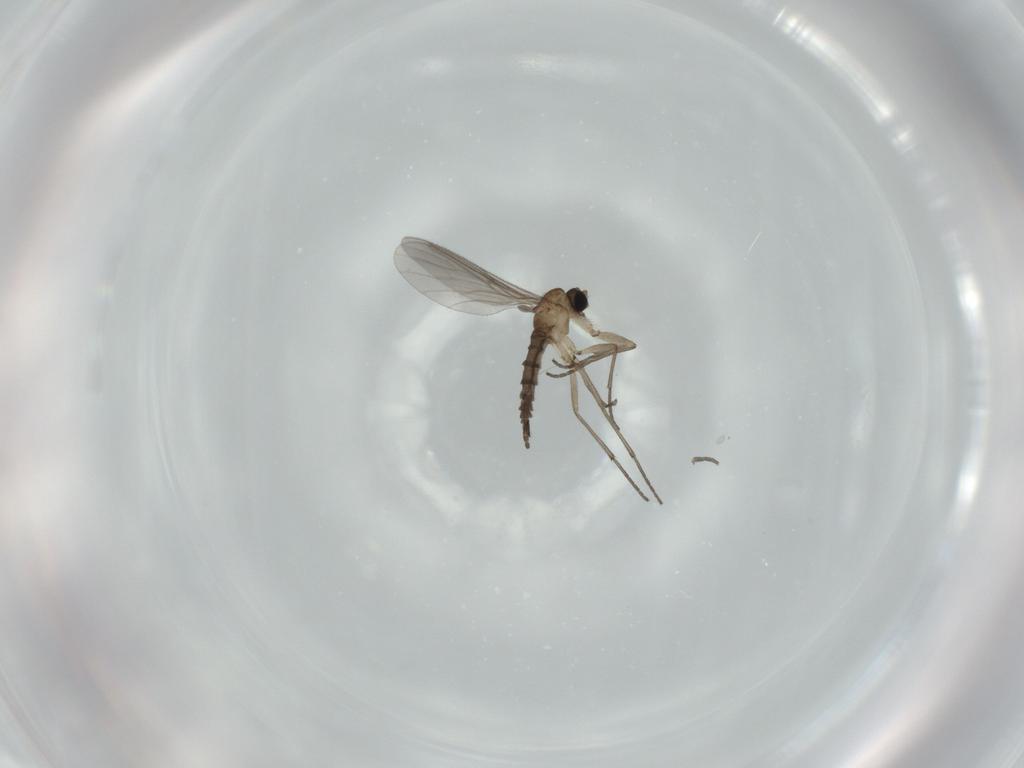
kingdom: Animalia
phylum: Arthropoda
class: Insecta
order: Diptera
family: Sciaridae
